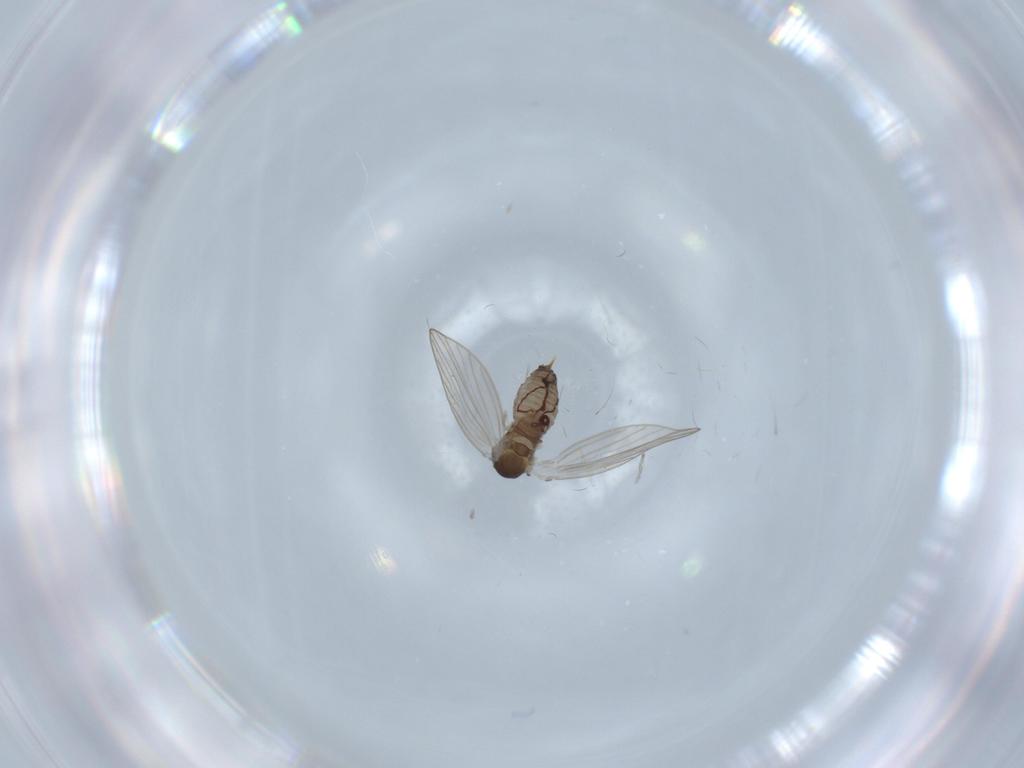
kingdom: Animalia
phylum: Arthropoda
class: Insecta
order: Diptera
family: Psychodidae
